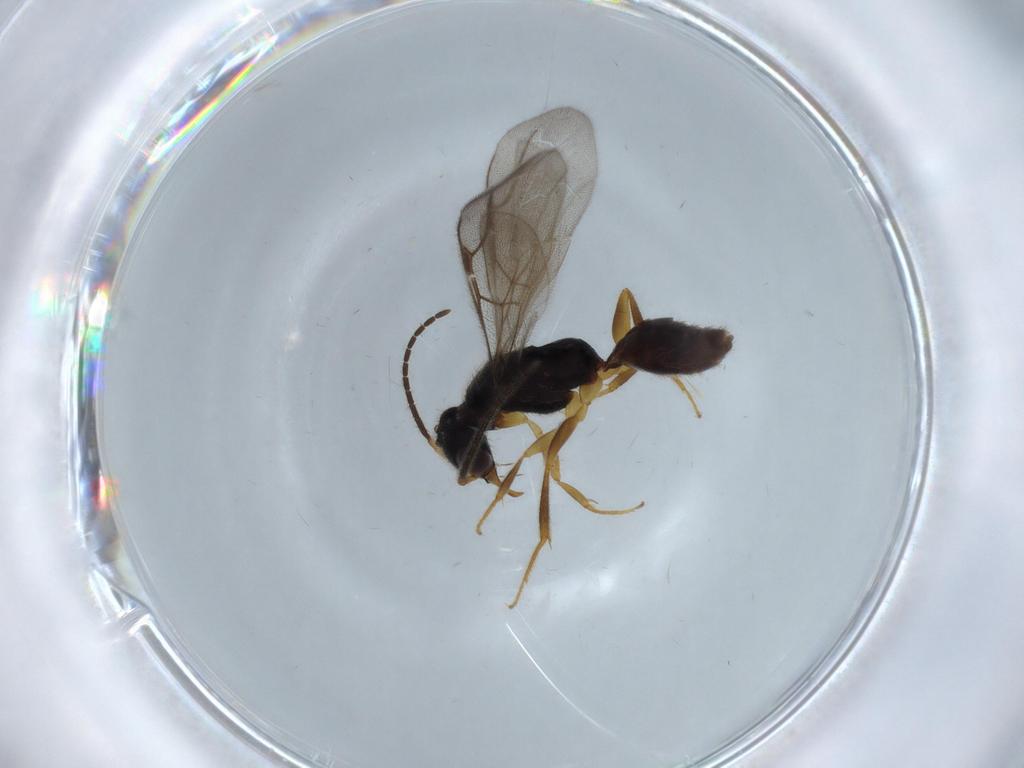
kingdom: Animalia
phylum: Arthropoda
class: Insecta
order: Hymenoptera
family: Bethylidae
